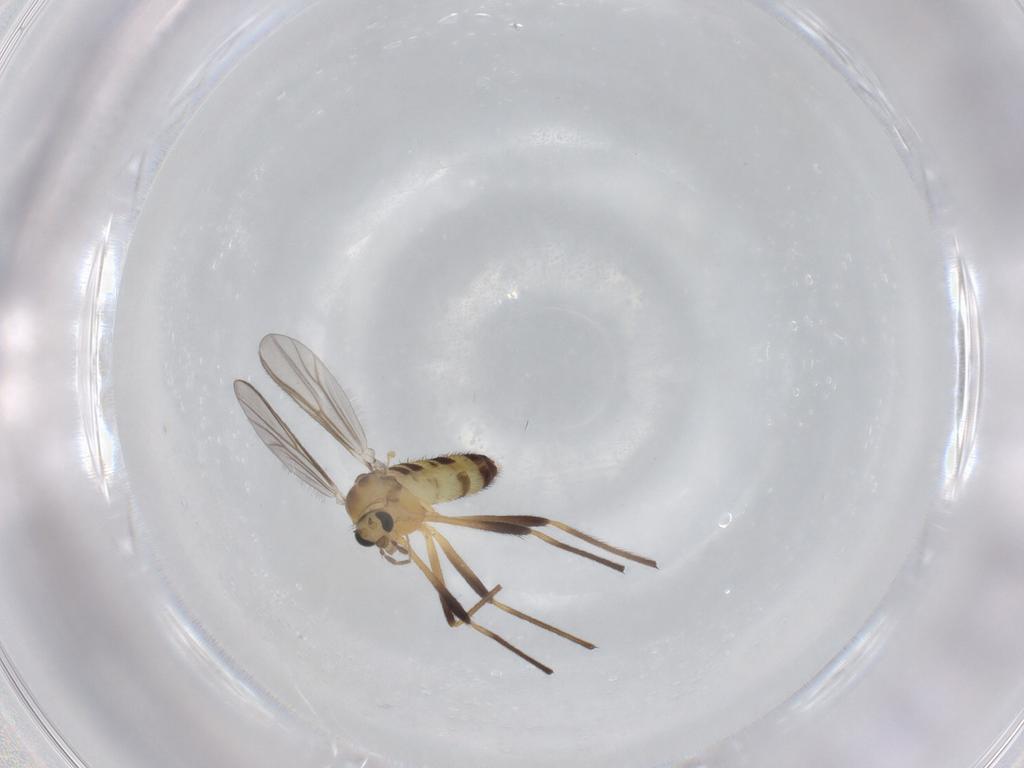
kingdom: Animalia
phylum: Arthropoda
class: Insecta
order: Diptera
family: Chironomidae
